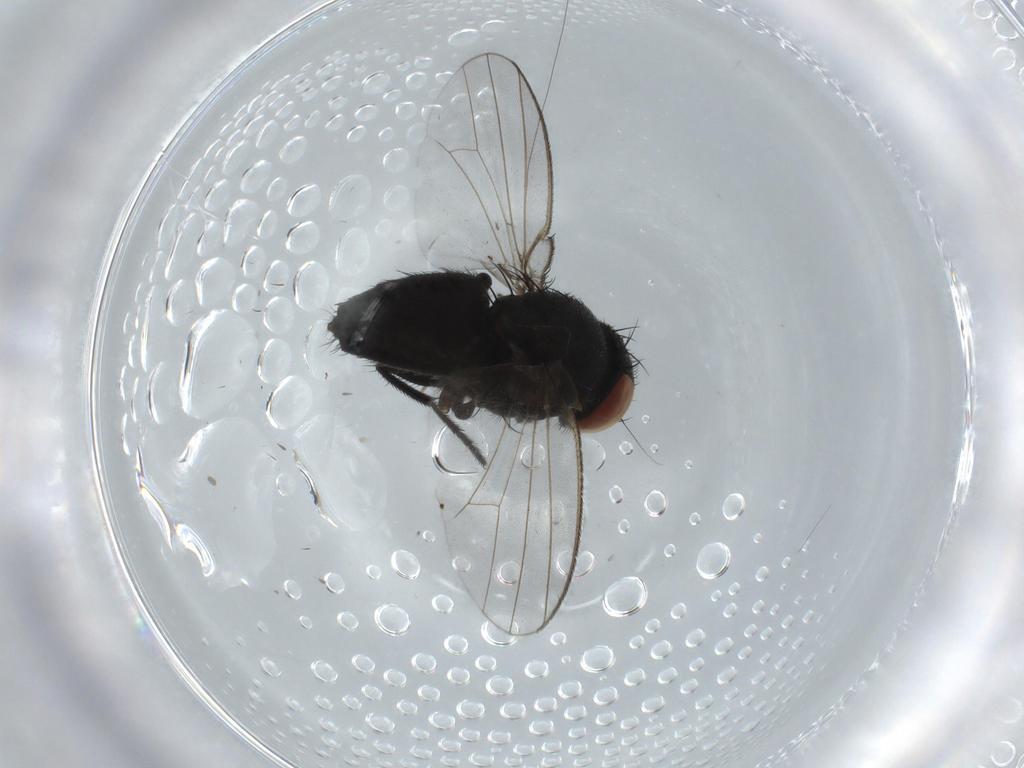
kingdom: Animalia
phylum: Arthropoda
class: Insecta
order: Diptera
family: Milichiidae
